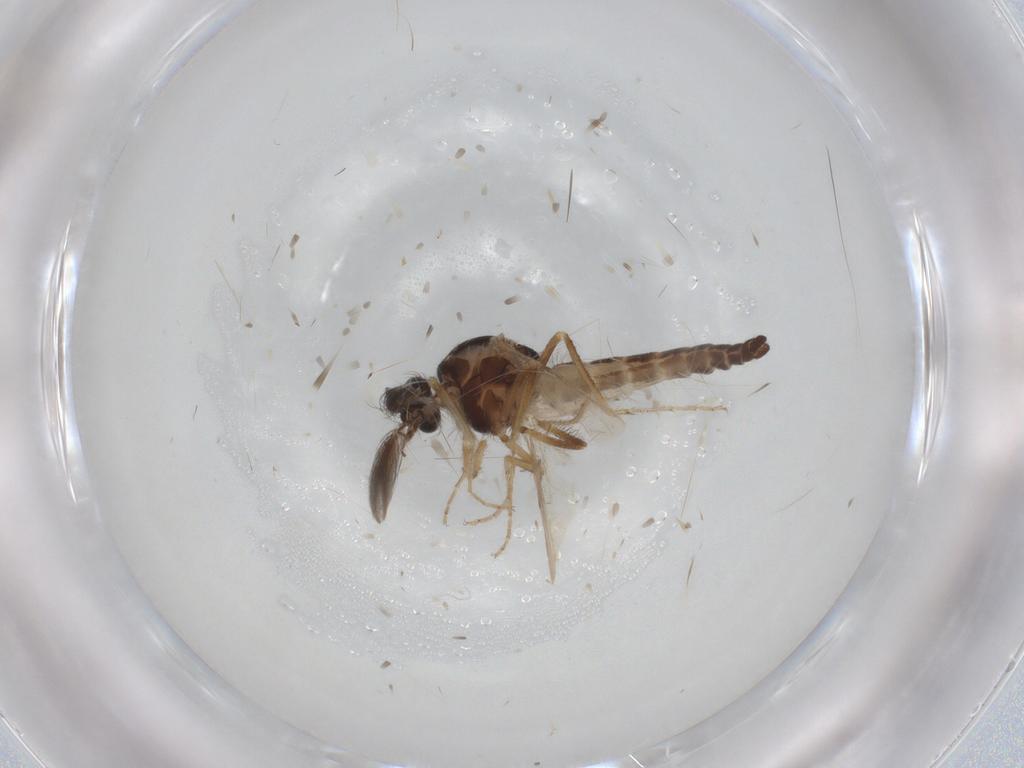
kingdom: Animalia
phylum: Arthropoda
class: Insecta
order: Diptera
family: Ceratopogonidae
